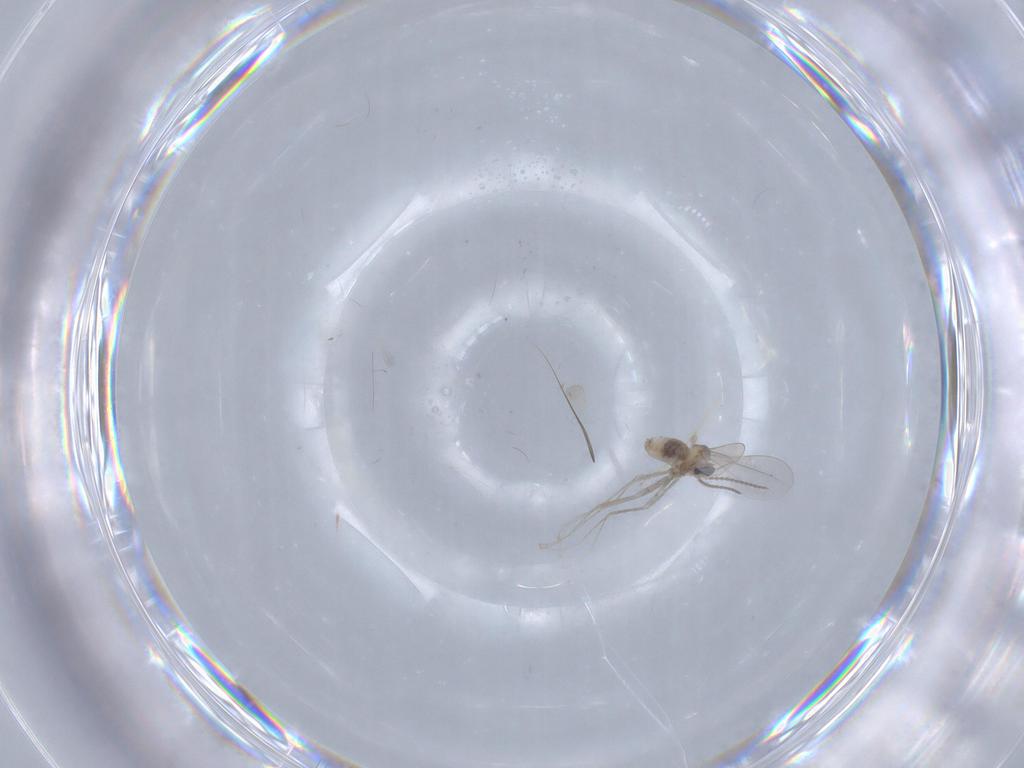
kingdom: Animalia
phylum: Arthropoda
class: Insecta
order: Diptera
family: Cecidomyiidae
